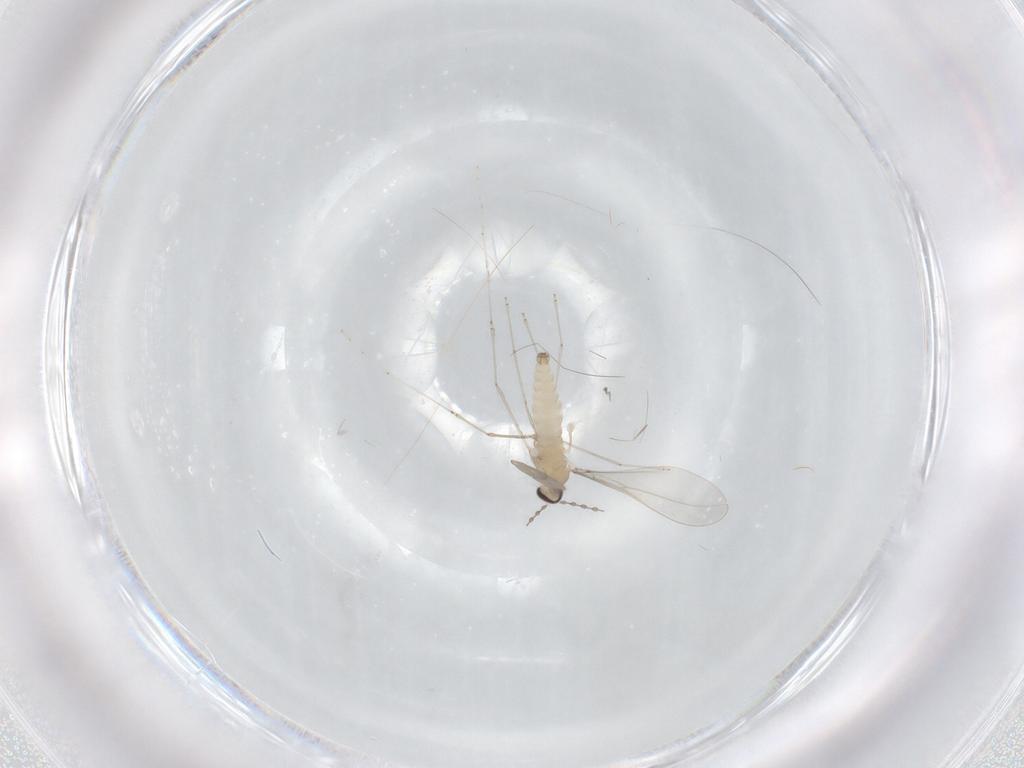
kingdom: Animalia
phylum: Arthropoda
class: Insecta
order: Diptera
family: Cecidomyiidae
